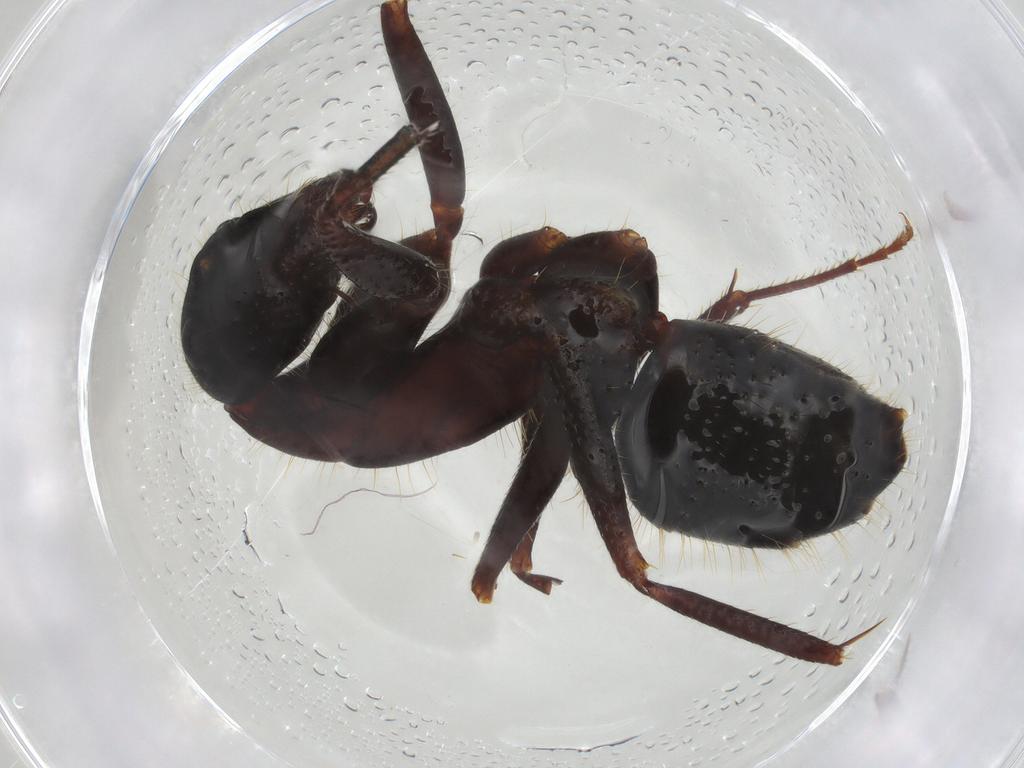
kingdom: Animalia
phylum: Arthropoda
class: Insecta
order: Hymenoptera
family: Formicidae
